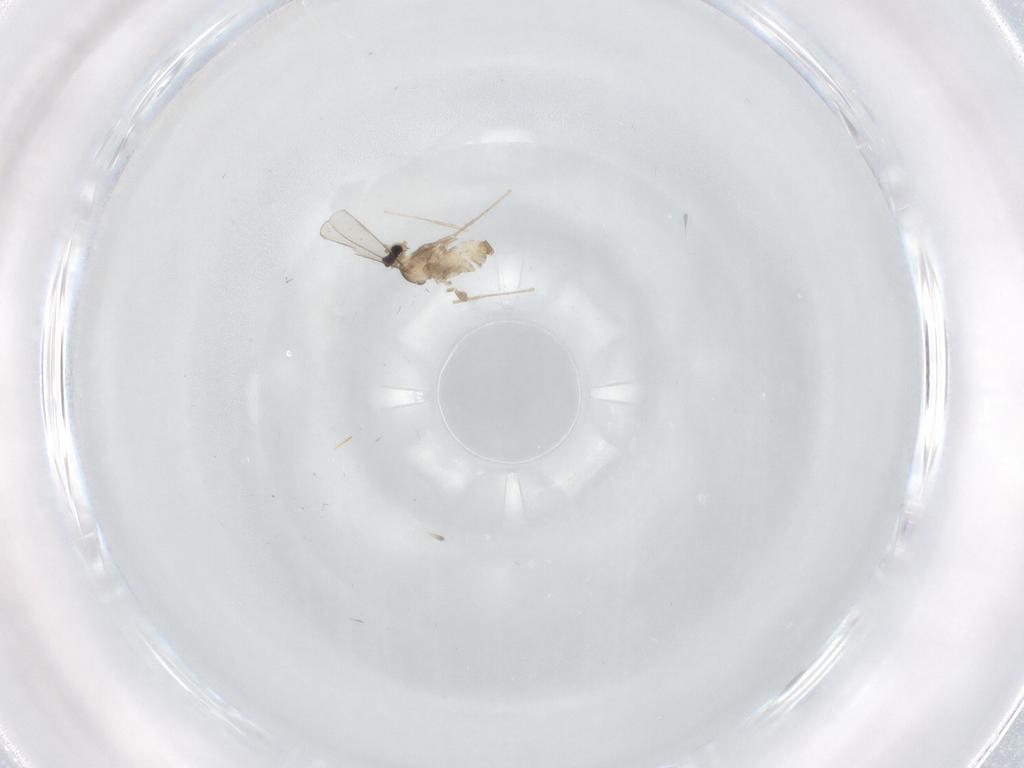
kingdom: Animalia
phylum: Arthropoda
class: Insecta
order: Diptera
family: Cecidomyiidae
